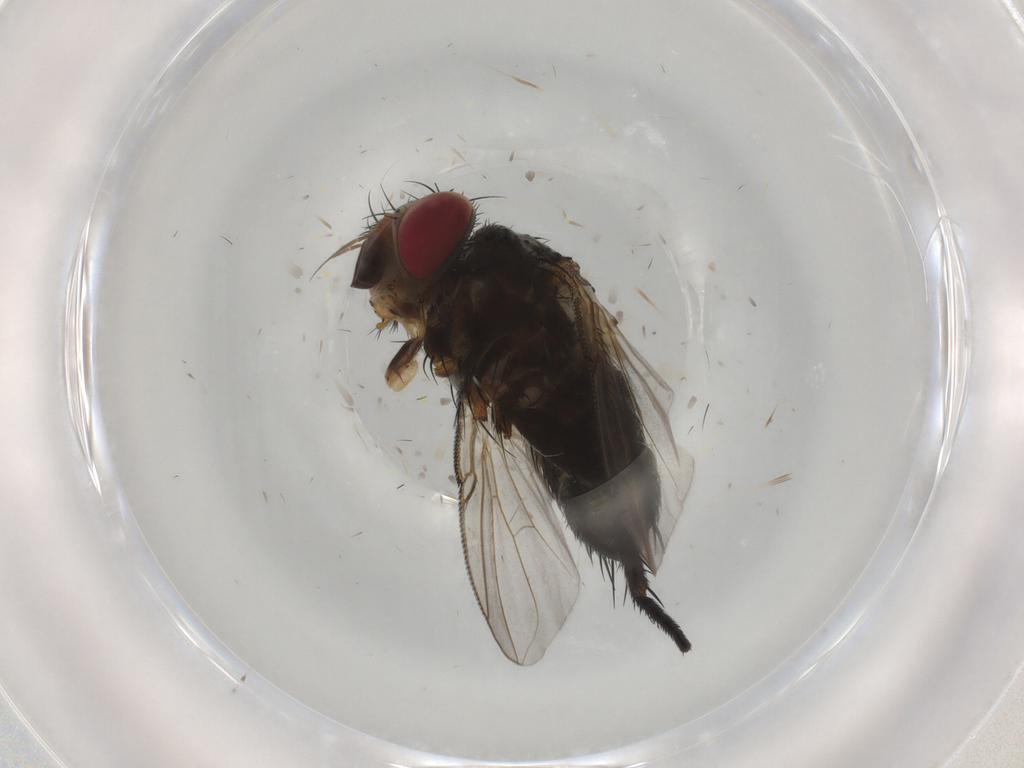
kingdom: Animalia
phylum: Arthropoda
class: Insecta
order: Diptera
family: Tachinidae
